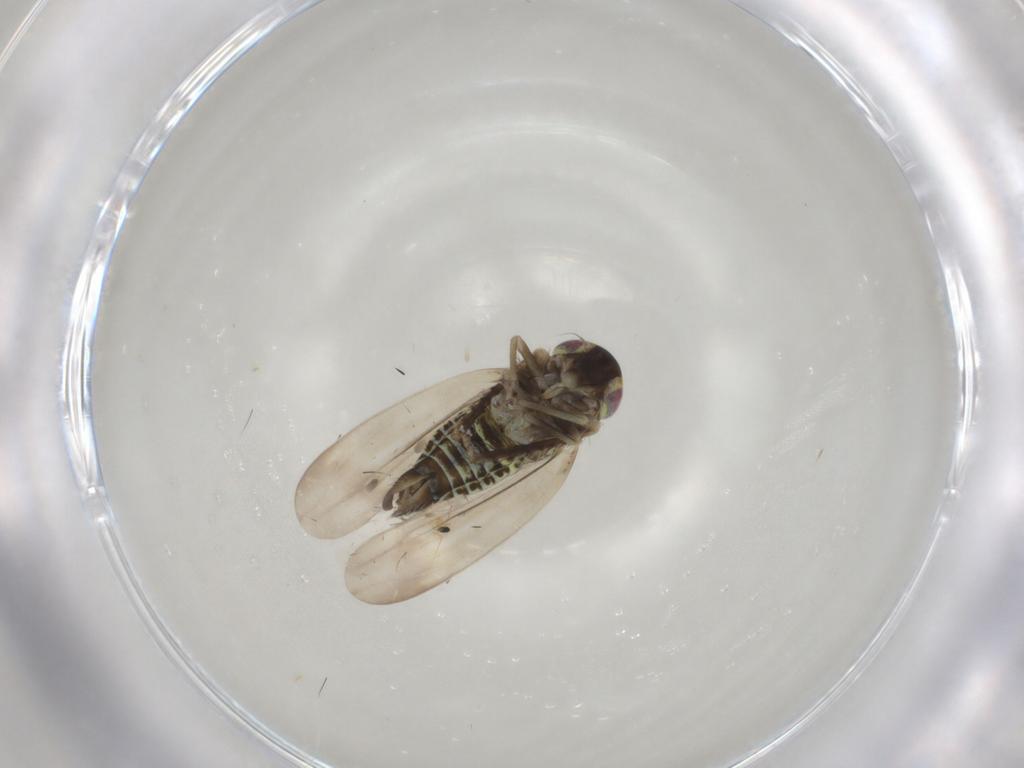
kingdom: Animalia
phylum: Arthropoda
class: Insecta
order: Hemiptera
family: Cicadellidae
